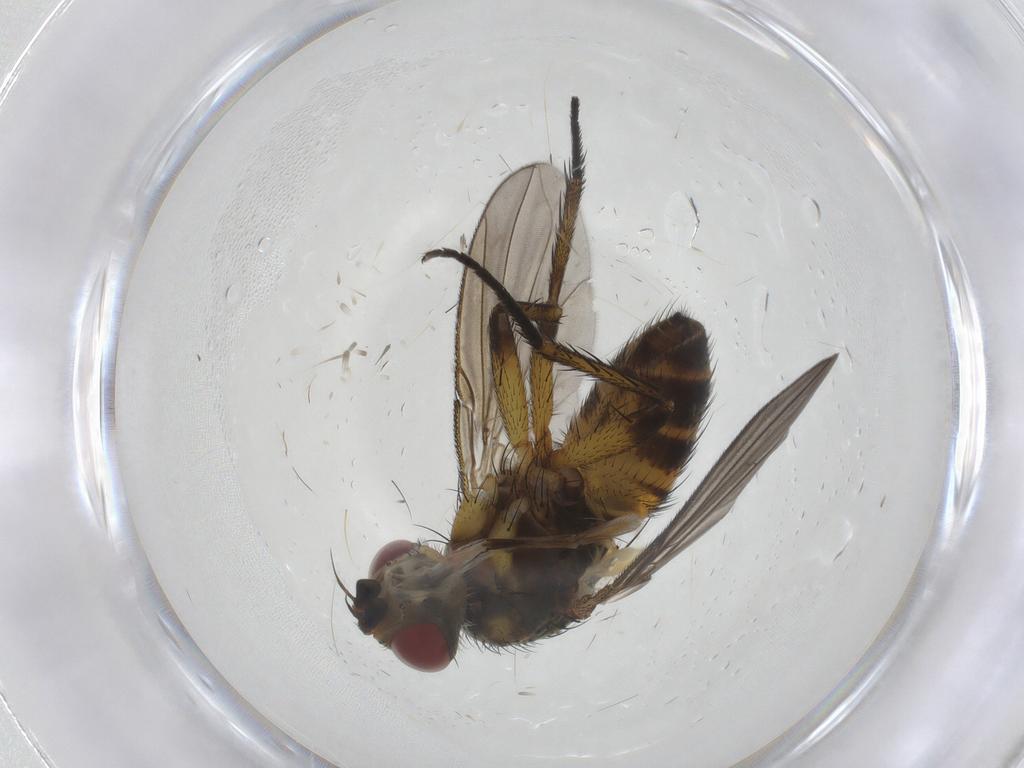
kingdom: Animalia
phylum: Arthropoda
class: Insecta
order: Diptera
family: Tachinidae
